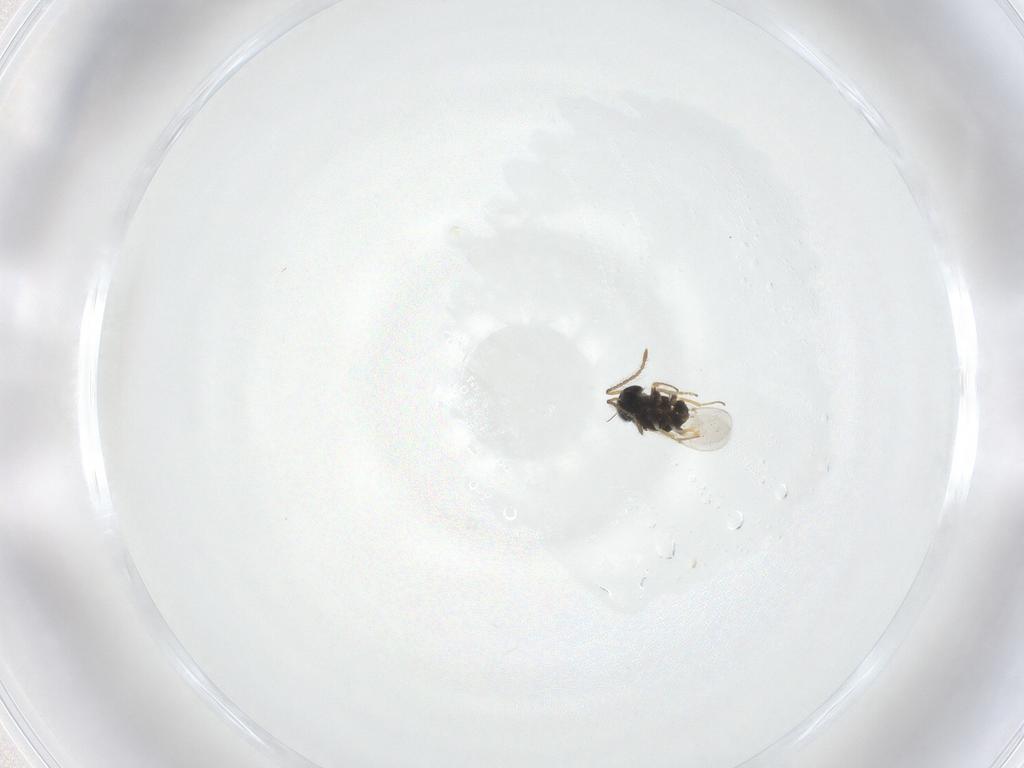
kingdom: Animalia
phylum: Arthropoda
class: Insecta
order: Hymenoptera
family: Encyrtidae
